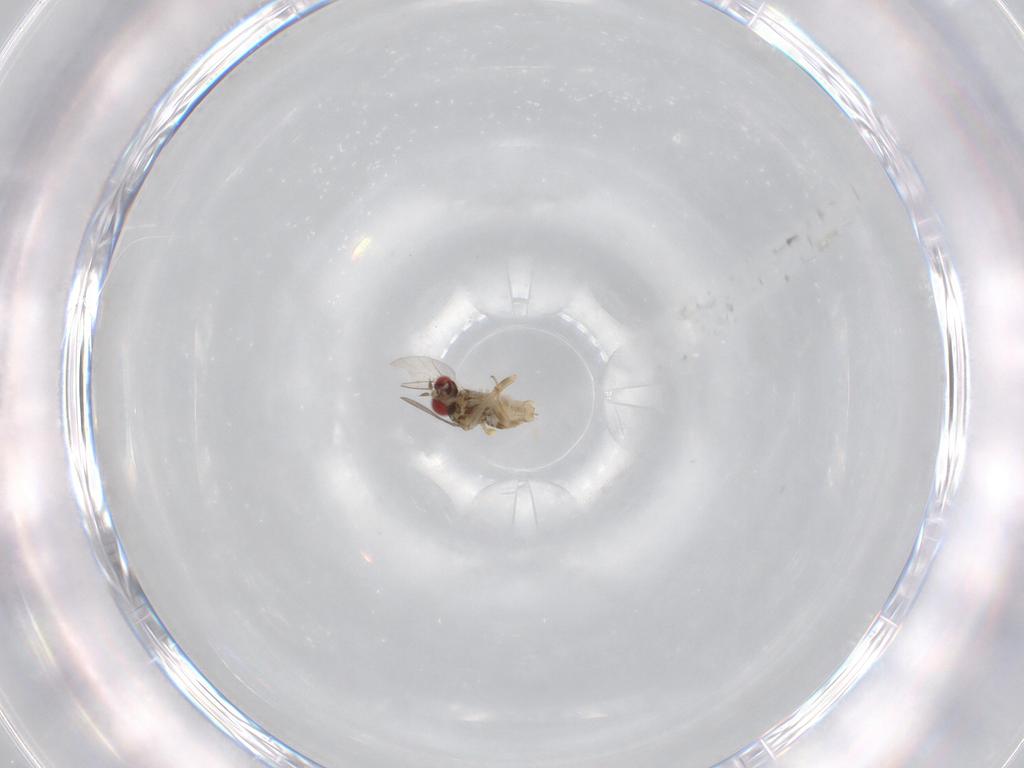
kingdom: Animalia
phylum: Arthropoda
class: Insecta
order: Diptera
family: Bombyliidae
